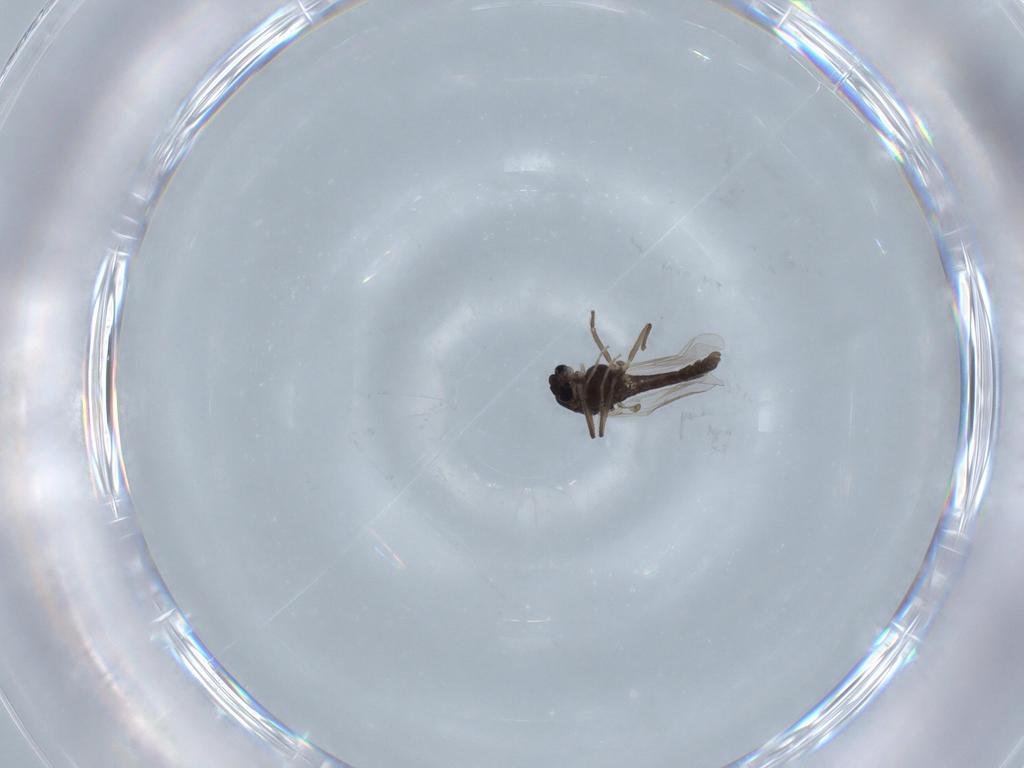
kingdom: Animalia
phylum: Arthropoda
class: Insecta
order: Diptera
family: Chironomidae
